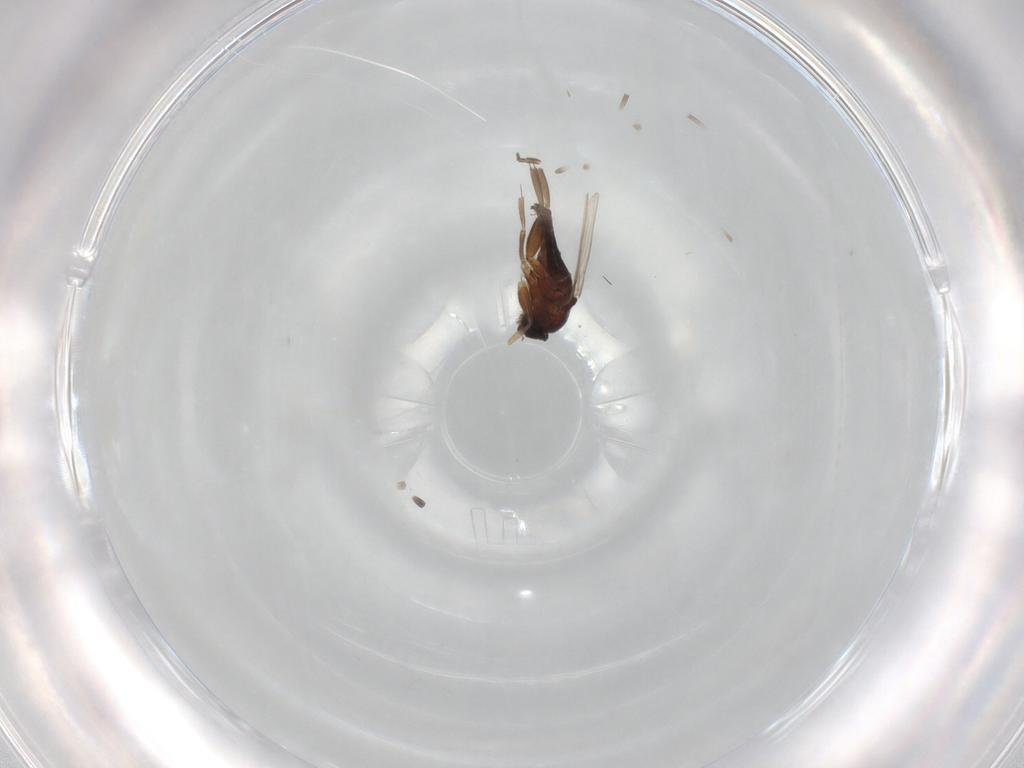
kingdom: Animalia
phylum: Arthropoda
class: Insecta
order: Diptera
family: Phoridae
